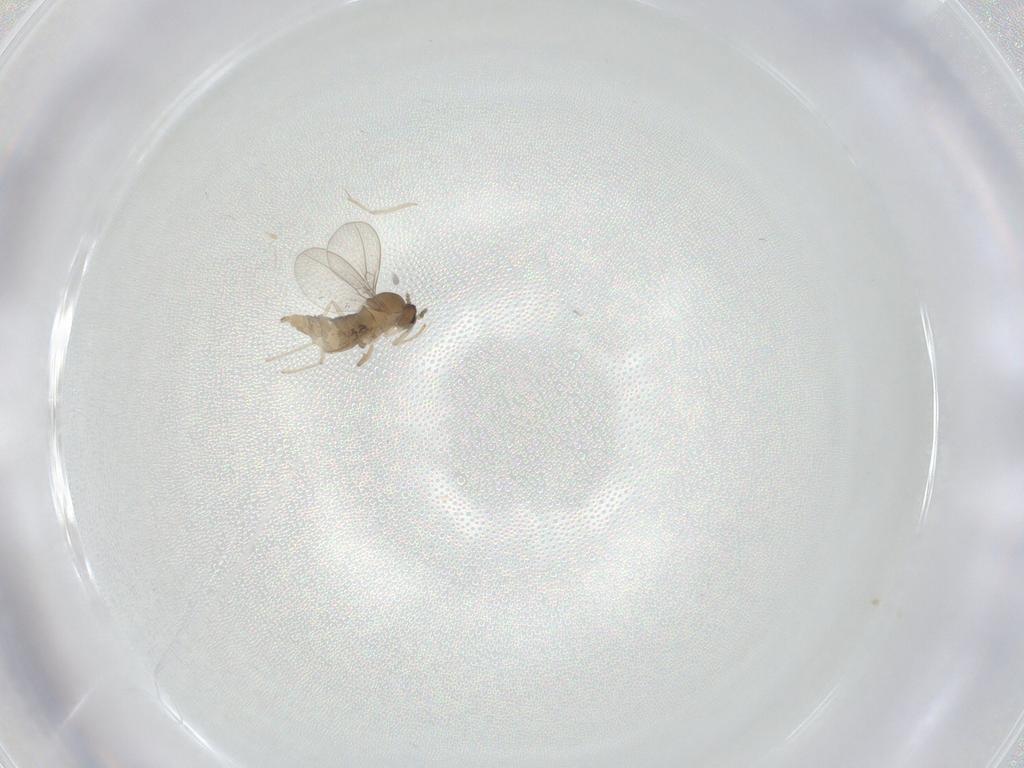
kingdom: Animalia
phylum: Arthropoda
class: Insecta
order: Diptera
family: Cecidomyiidae
